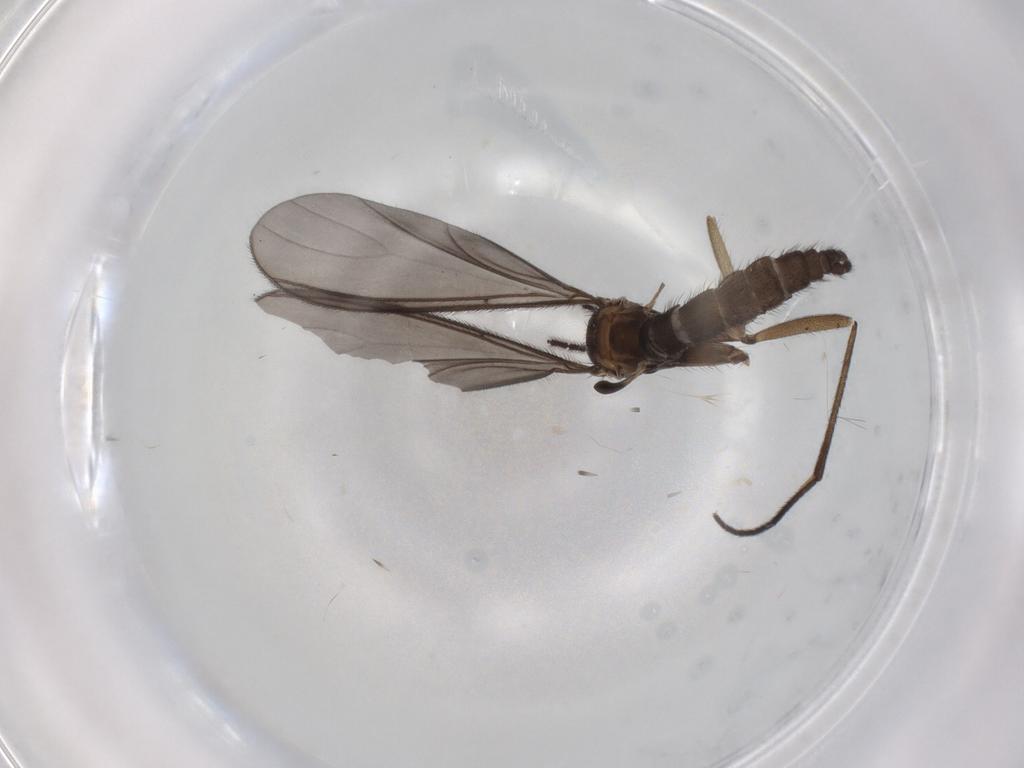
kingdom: Animalia
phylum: Arthropoda
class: Insecta
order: Diptera
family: Sciaridae
